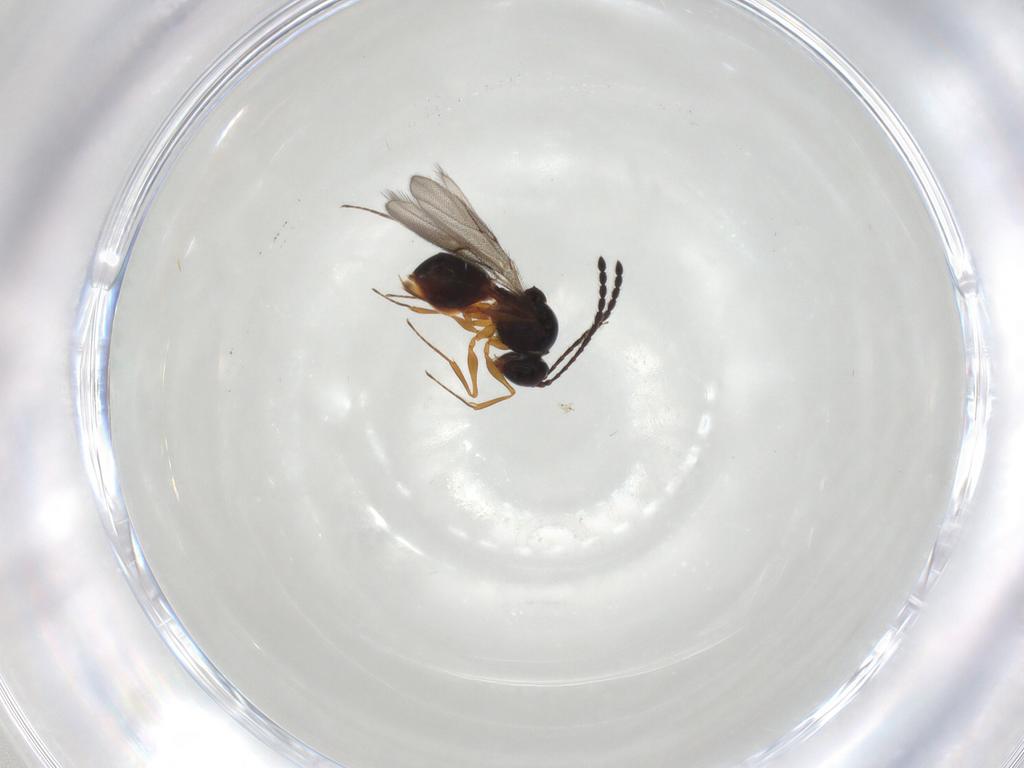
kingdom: Animalia
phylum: Arthropoda
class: Insecta
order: Hymenoptera
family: Figitidae
